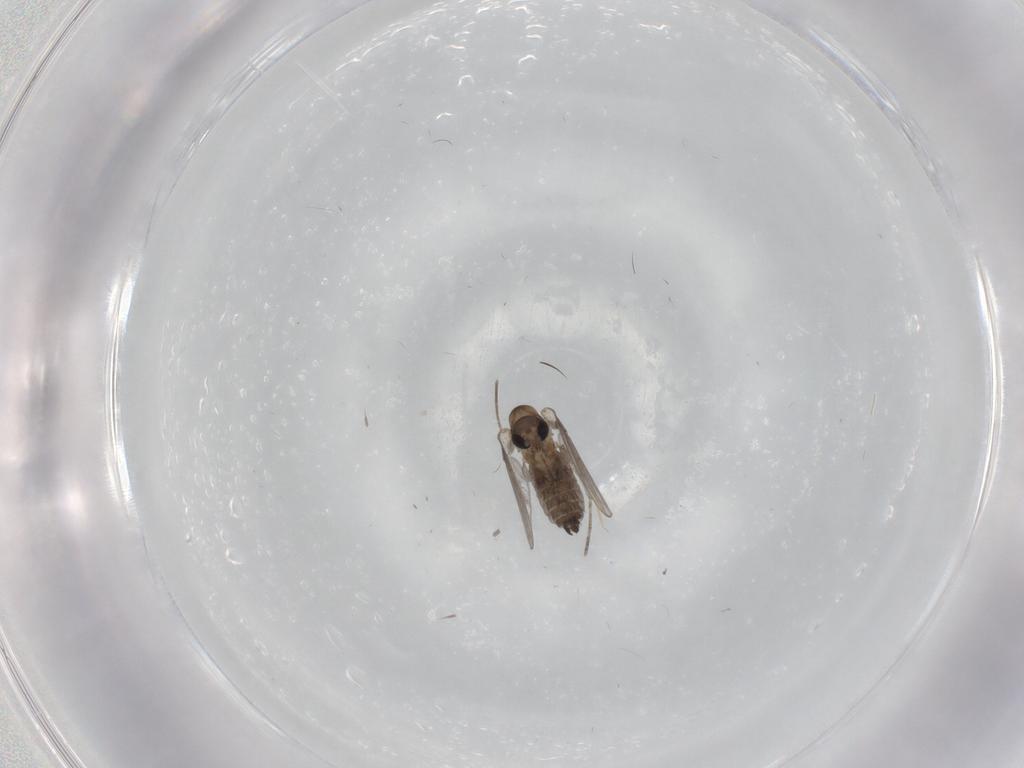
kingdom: Animalia
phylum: Arthropoda
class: Insecta
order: Diptera
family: Psychodidae
